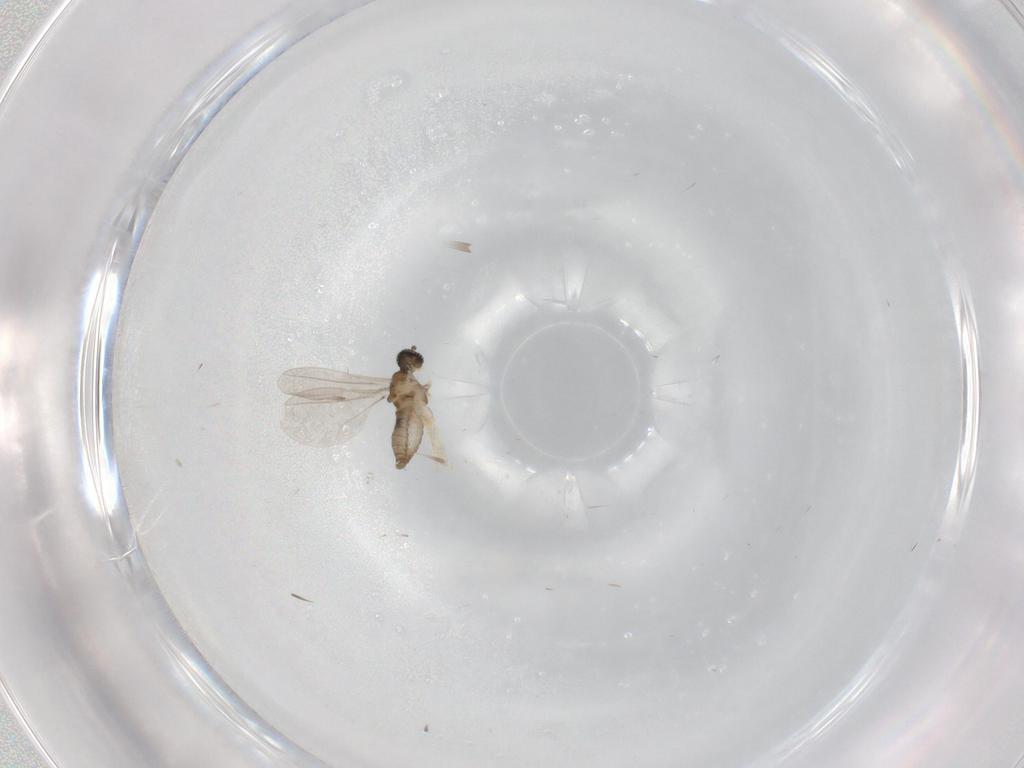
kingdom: Animalia
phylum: Arthropoda
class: Insecta
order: Diptera
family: Cecidomyiidae
